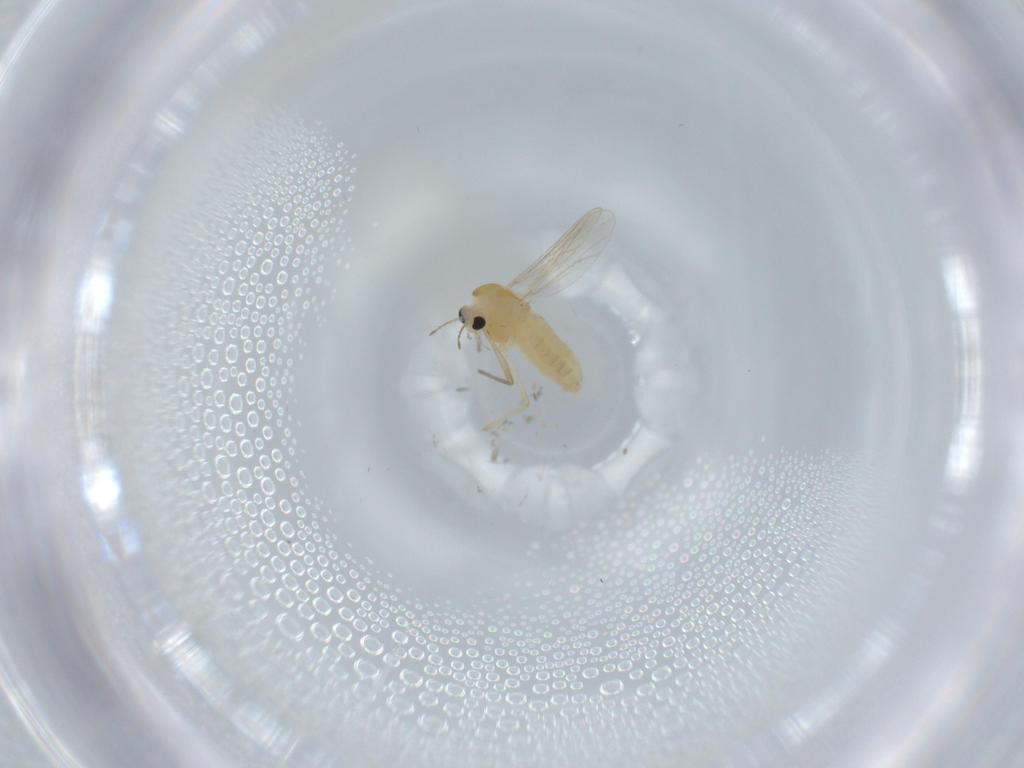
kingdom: Animalia
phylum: Arthropoda
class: Insecta
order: Diptera
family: Chironomidae
